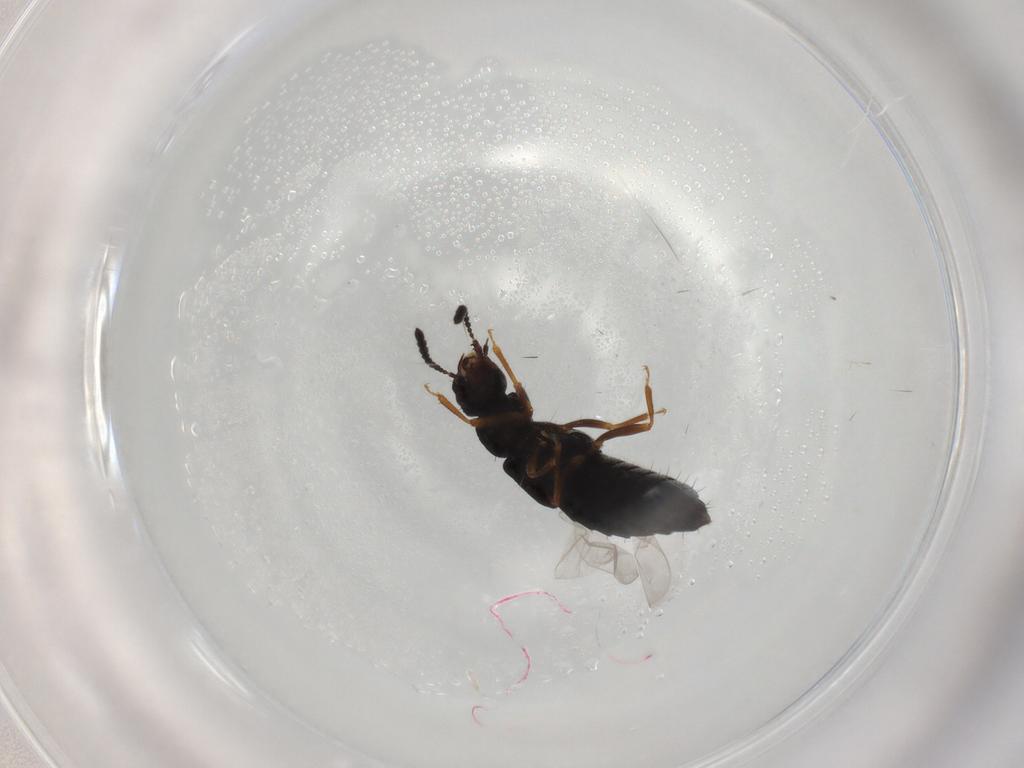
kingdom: Animalia
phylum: Arthropoda
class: Insecta
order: Coleoptera
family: Staphylinidae
